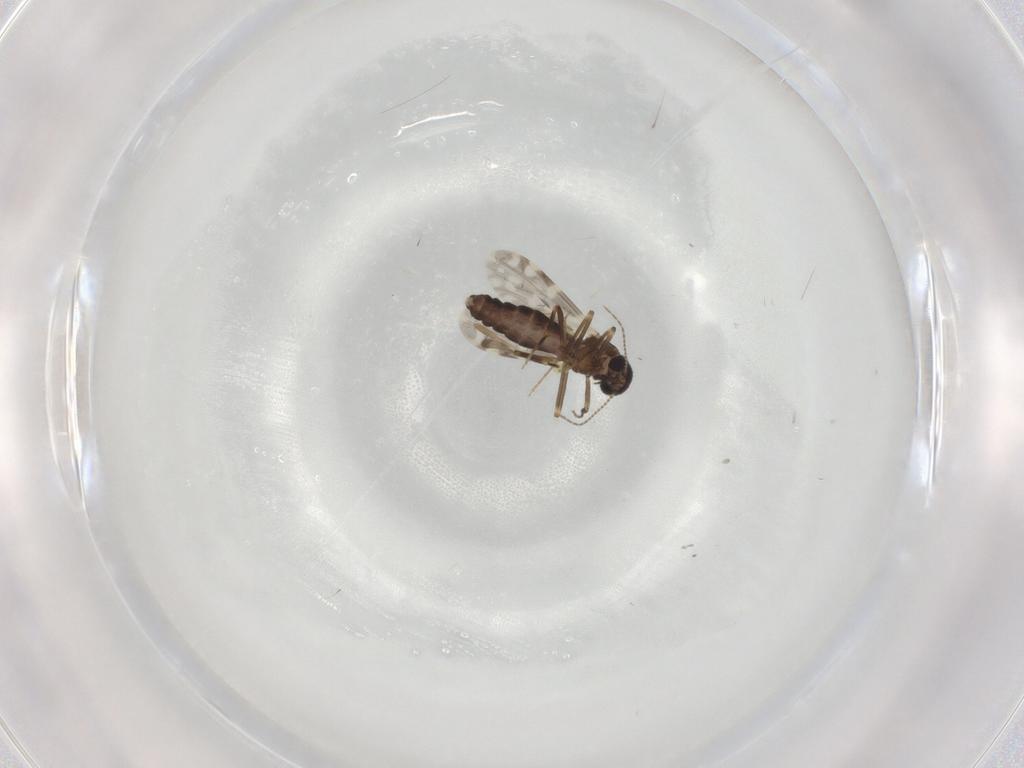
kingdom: Animalia
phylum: Arthropoda
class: Insecta
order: Diptera
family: Ceratopogonidae
